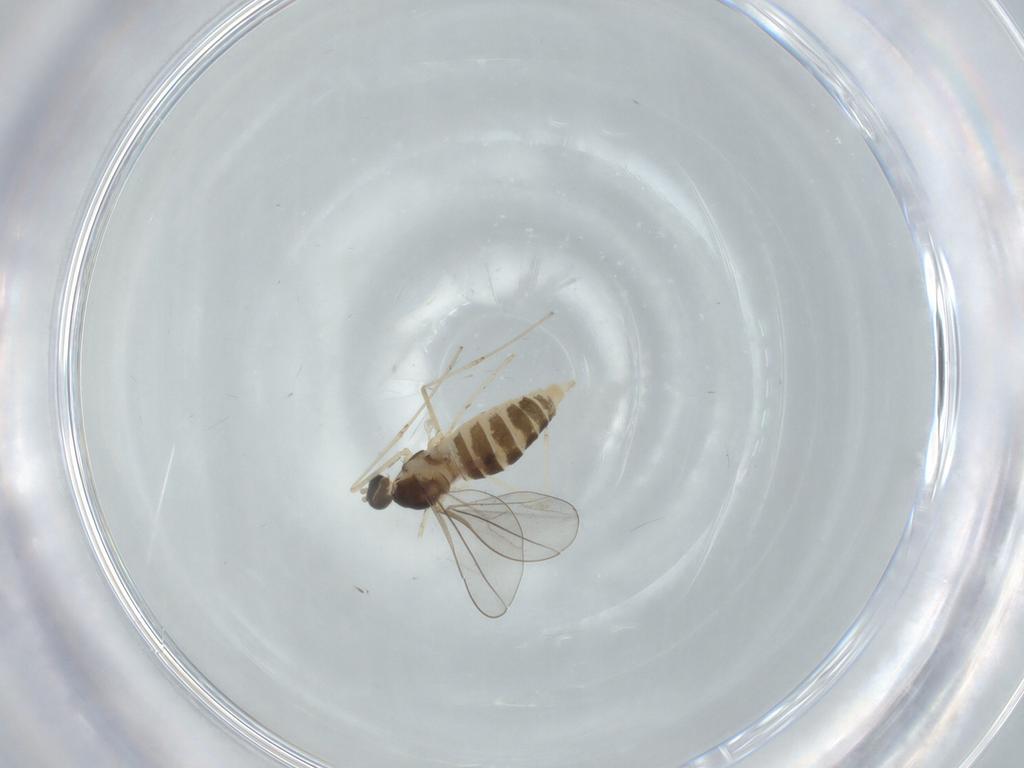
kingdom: Animalia
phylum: Arthropoda
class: Insecta
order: Diptera
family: Cecidomyiidae
